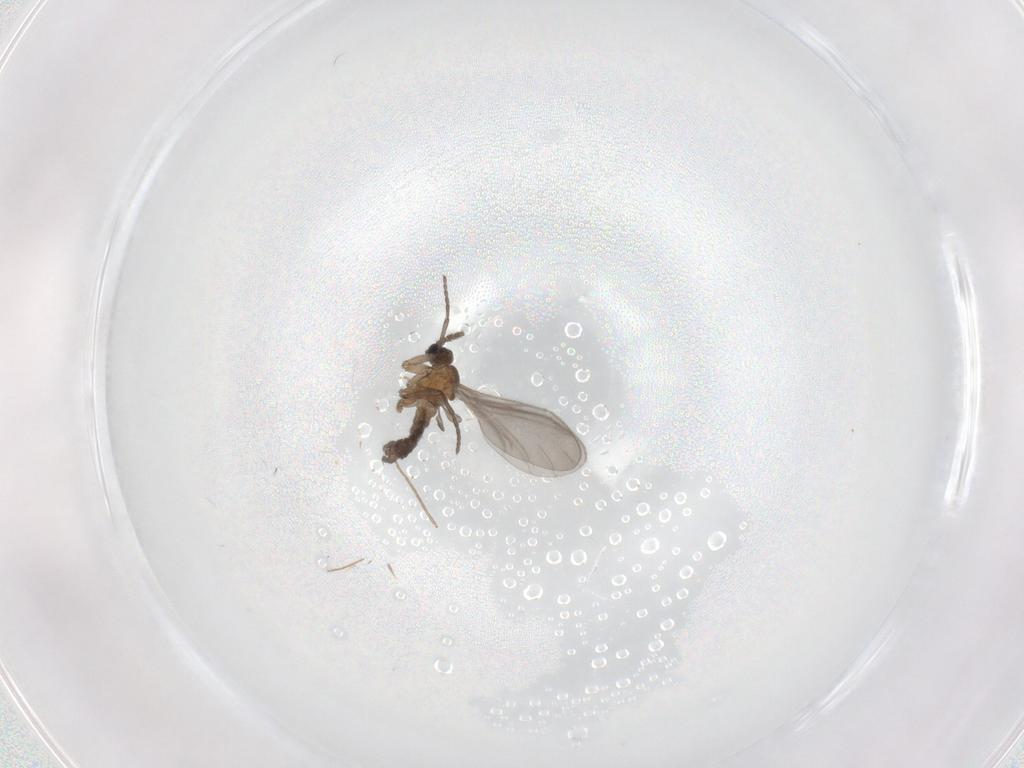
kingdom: Animalia
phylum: Arthropoda
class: Insecta
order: Diptera
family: Sciaridae
